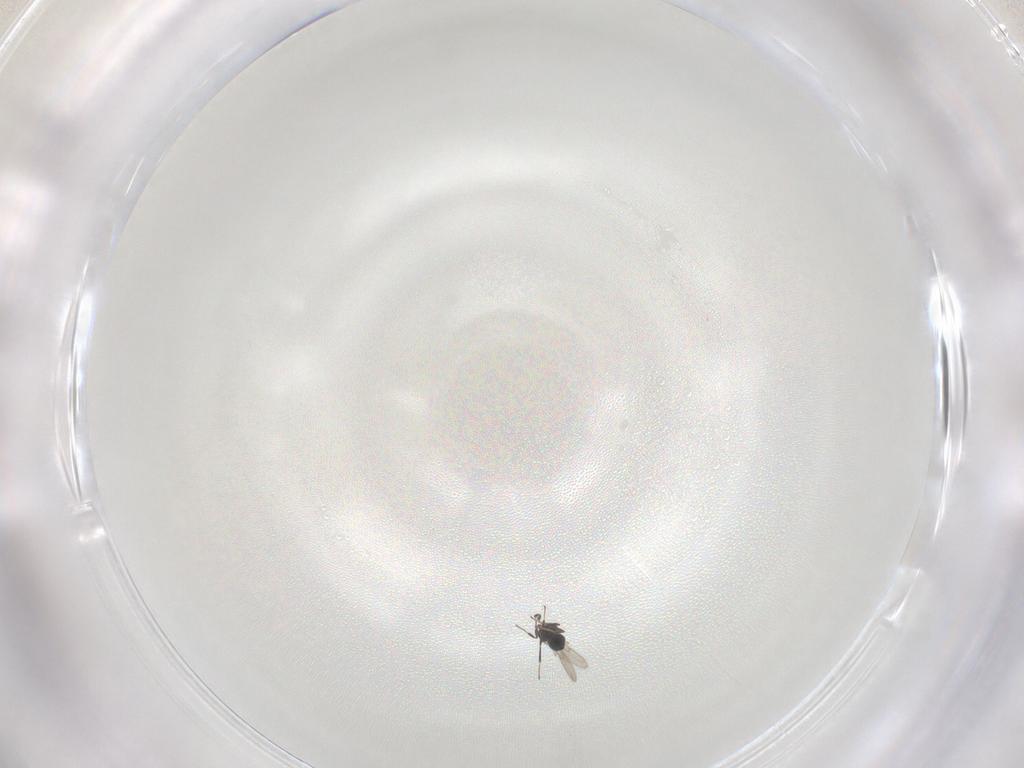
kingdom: Animalia
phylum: Arthropoda
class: Insecta
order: Hymenoptera
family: Scelionidae
